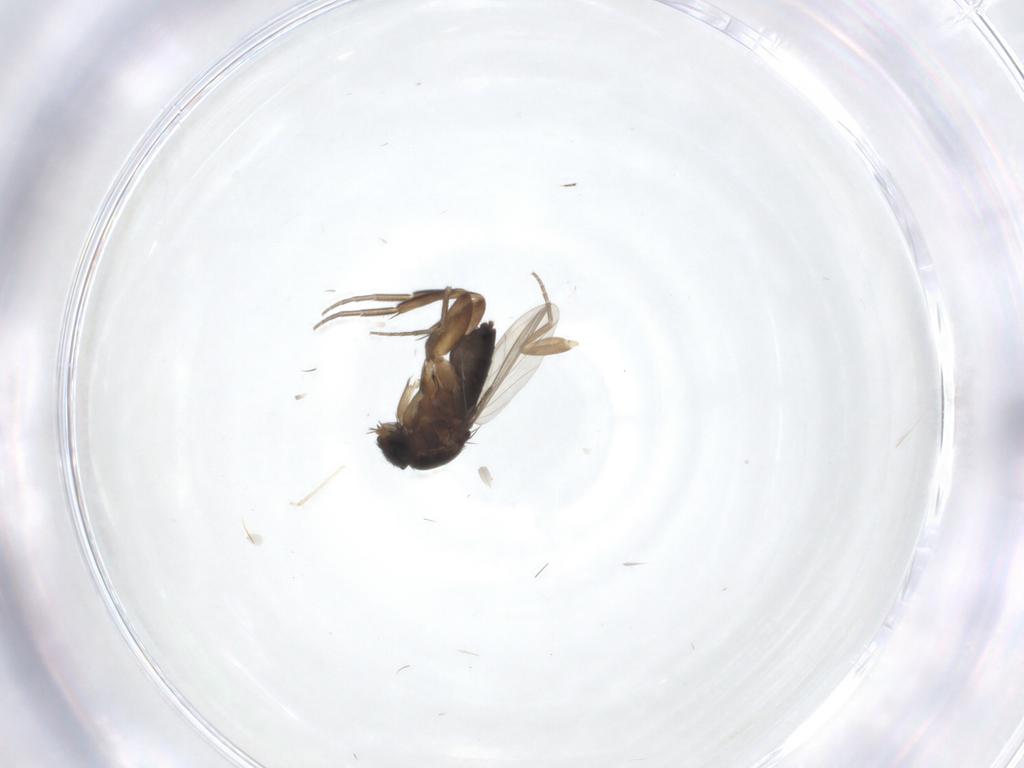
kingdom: Animalia
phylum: Arthropoda
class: Insecta
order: Diptera
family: Phoridae
